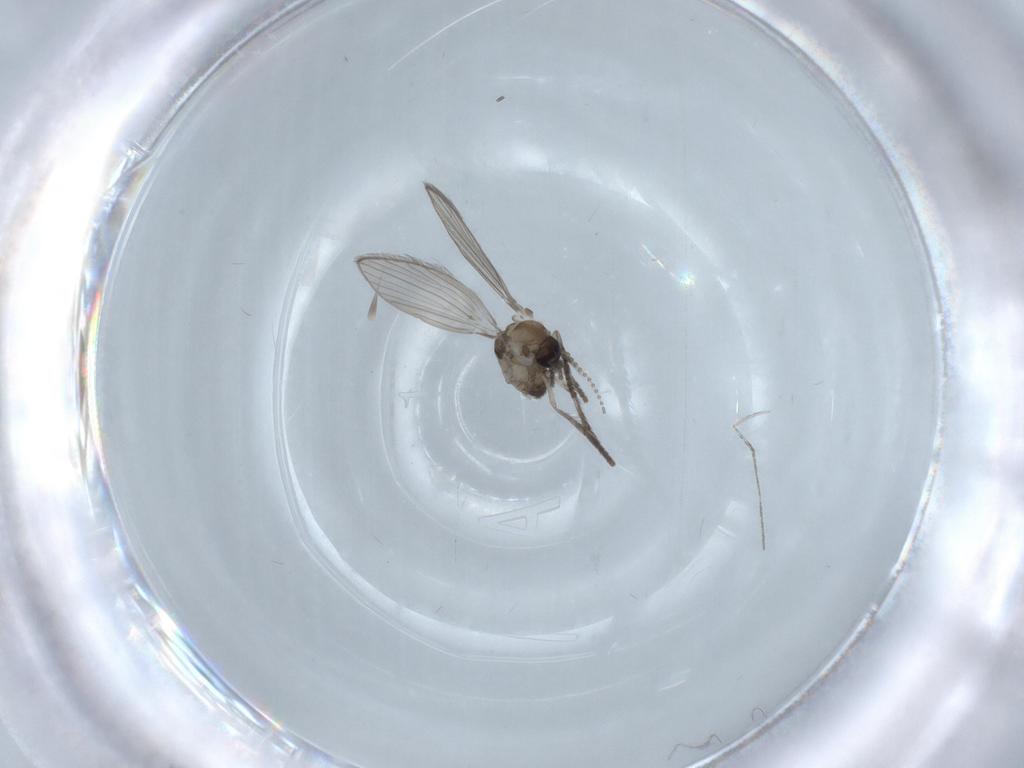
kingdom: Animalia
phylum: Arthropoda
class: Insecta
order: Diptera
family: Psychodidae
